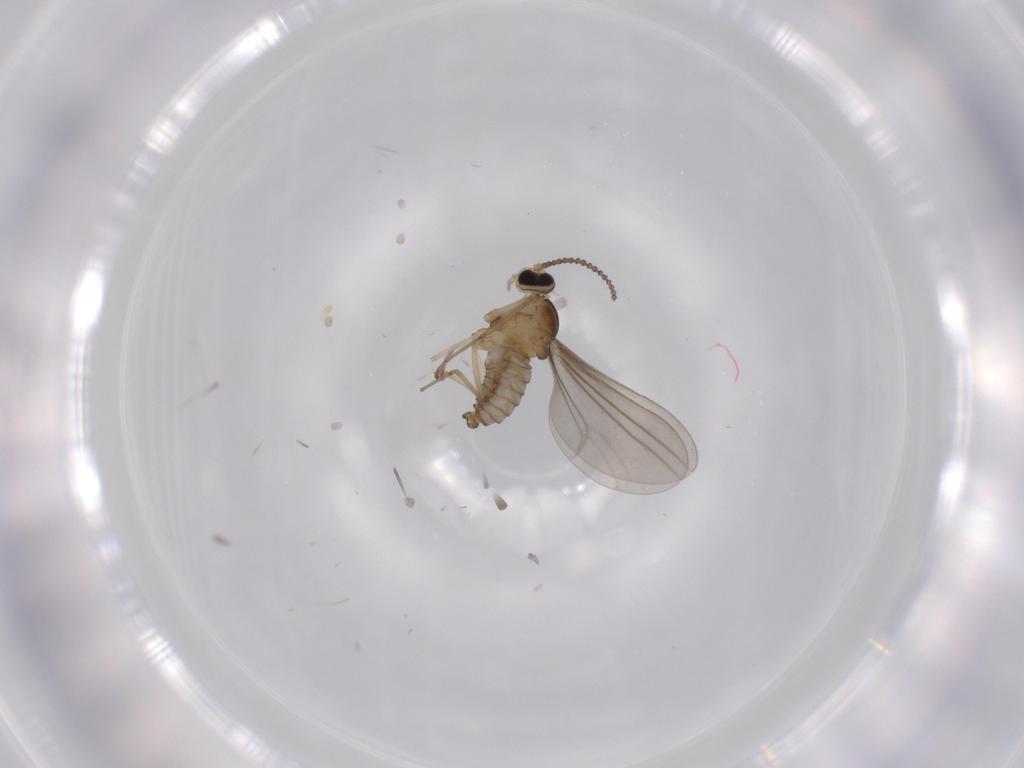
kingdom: Animalia
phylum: Arthropoda
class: Insecta
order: Diptera
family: Cecidomyiidae
